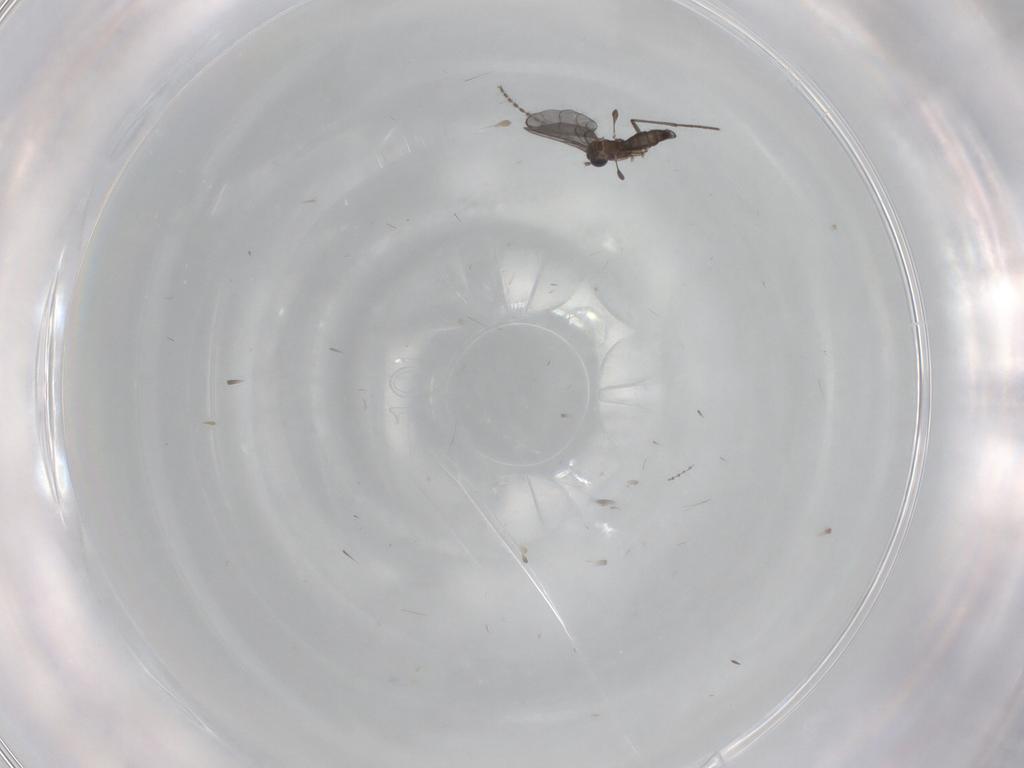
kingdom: Animalia
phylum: Arthropoda
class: Insecta
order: Diptera
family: Cecidomyiidae
